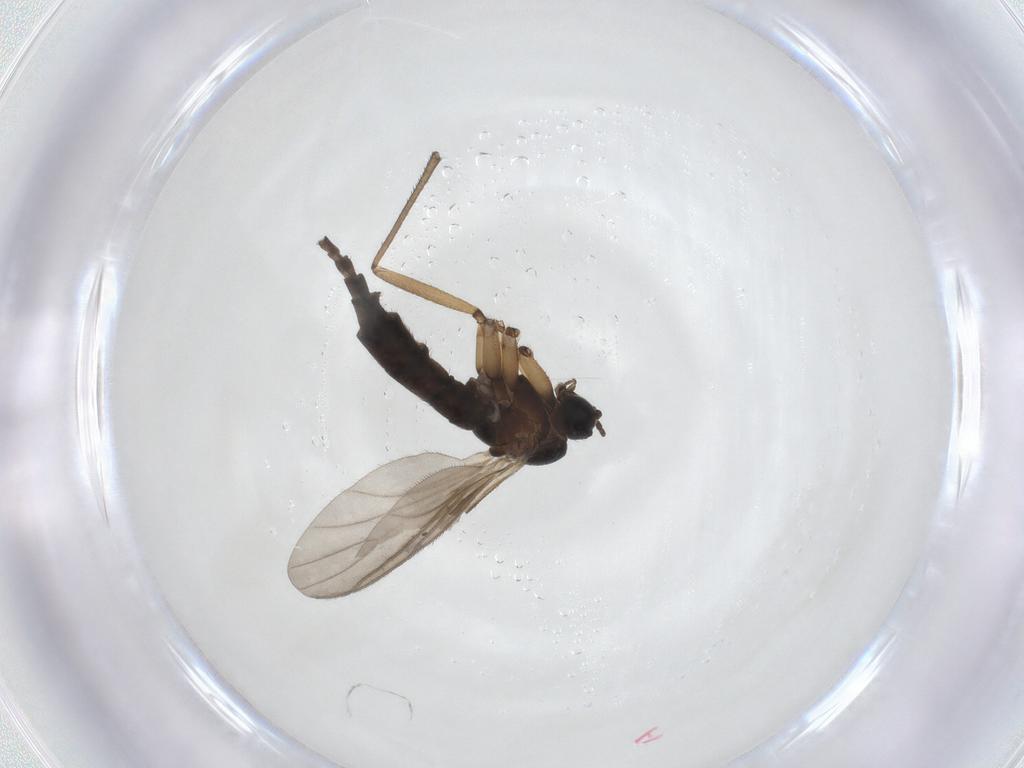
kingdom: Animalia
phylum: Arthropoda
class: Insecta
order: Diptera
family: Sciaridae
